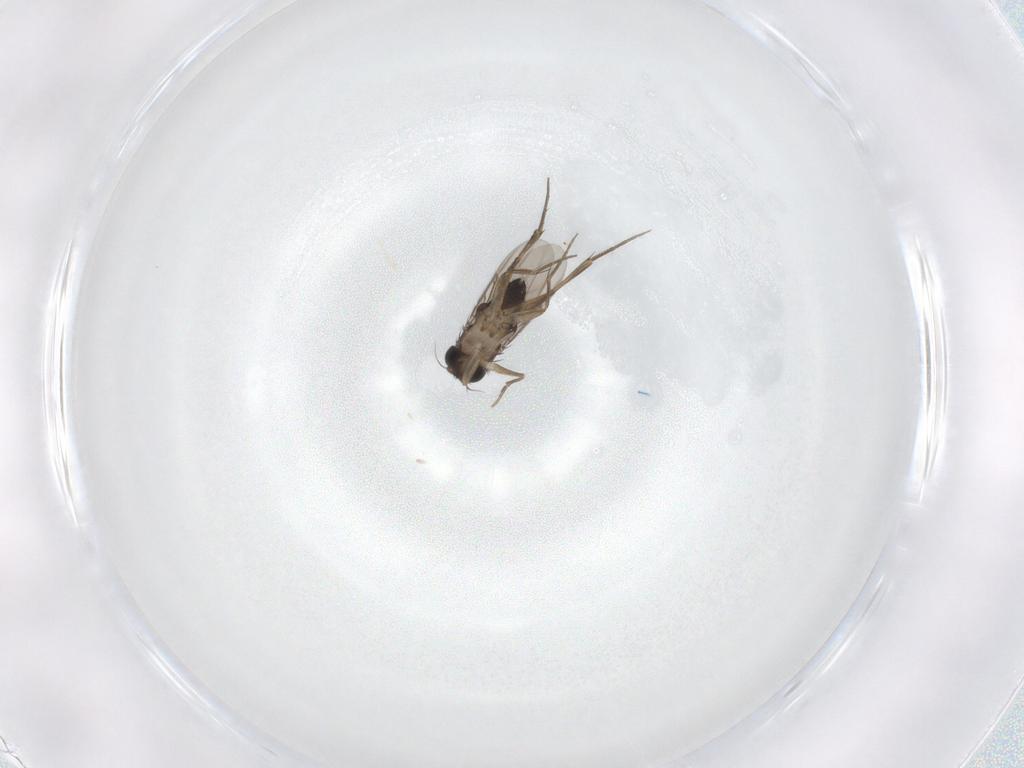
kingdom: Animalia
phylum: Arthropoda
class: Insecta
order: Diptera
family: Phoridae
